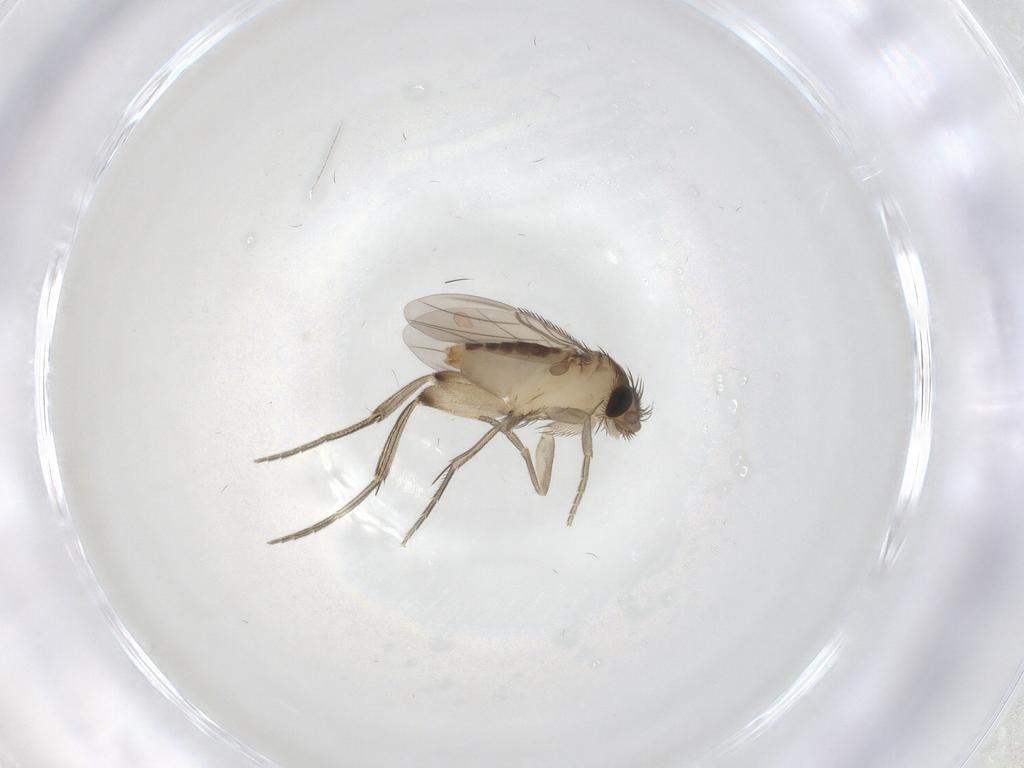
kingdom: Animalia
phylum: Arthropoda
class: Insecta
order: Diptera
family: Phoridae
